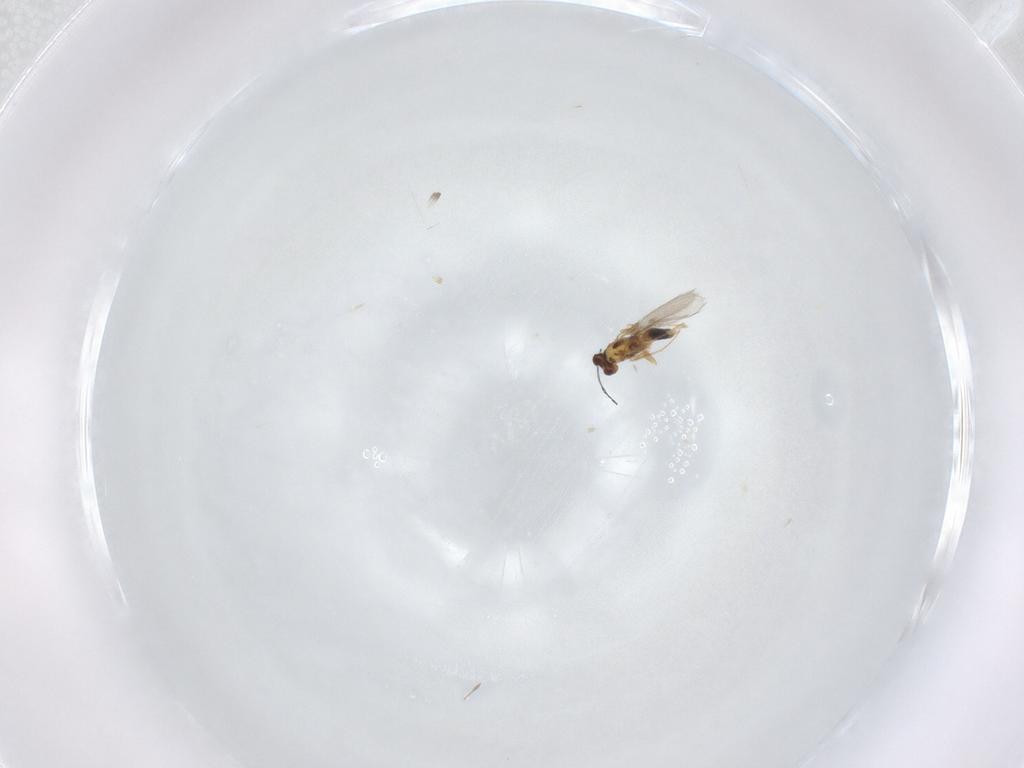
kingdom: Animalia
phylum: Arthropoda
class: Insecta
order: Hymenoptera
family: Mymaridae
